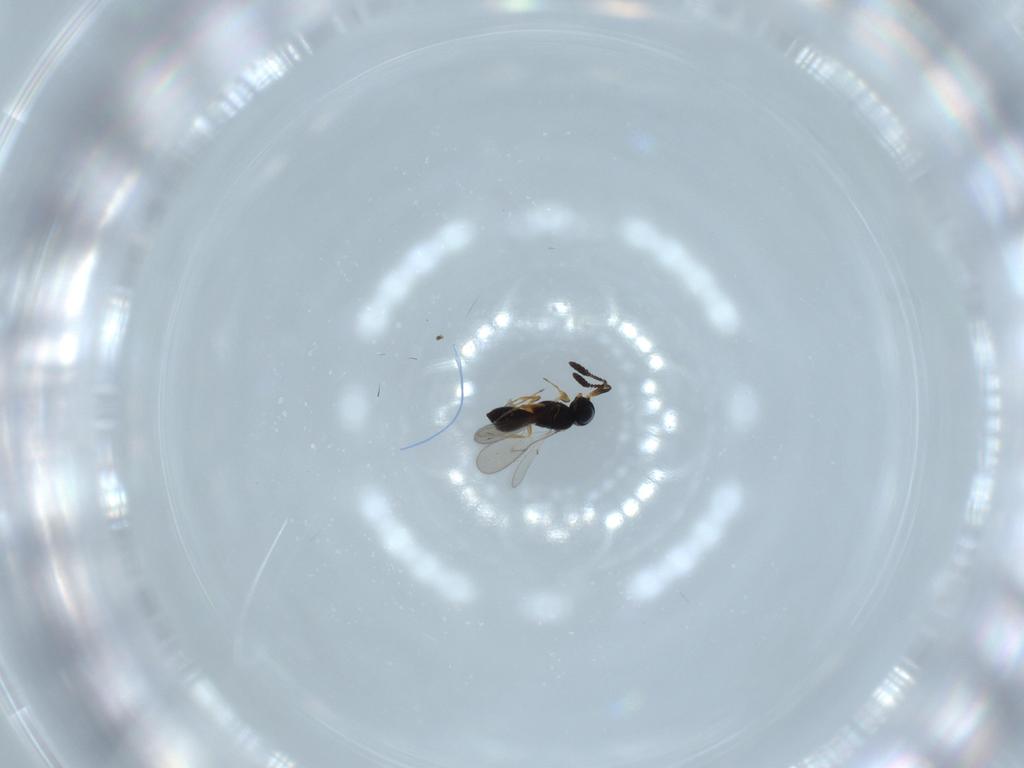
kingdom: Animalia
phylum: Arthropoda
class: Insecta
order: Hymenoptera
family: Scelionidae
